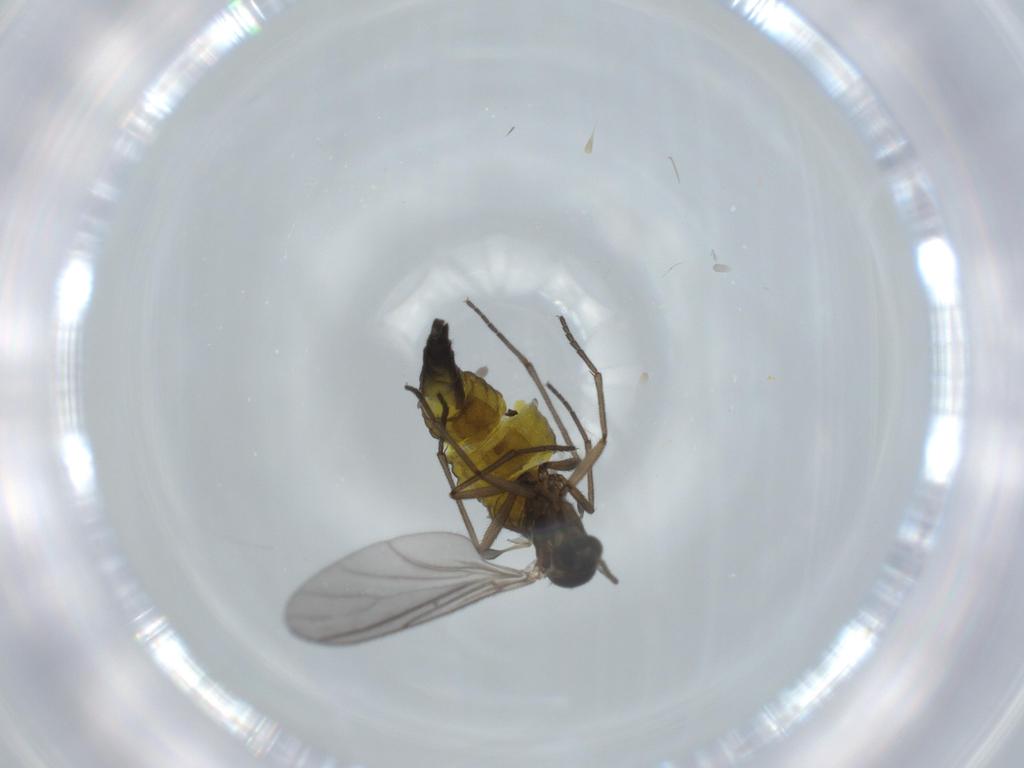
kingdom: Animalia
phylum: Arthropoda
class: Insecta
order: Diptera
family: Sciaridae
